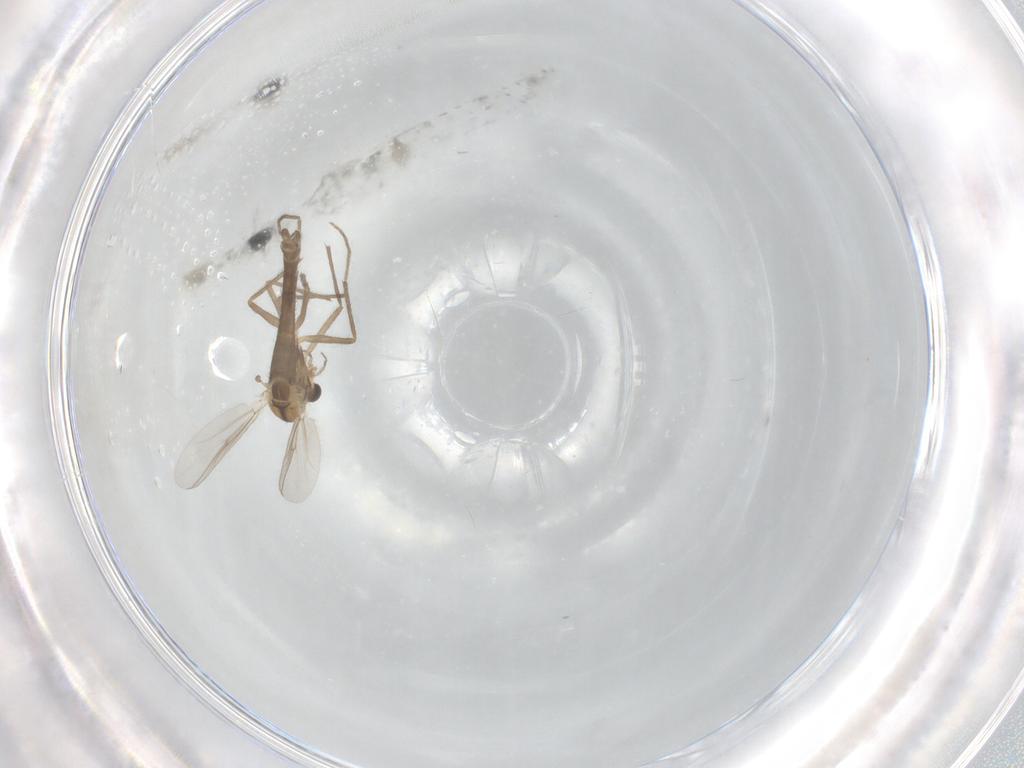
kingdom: Animalia
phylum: Arthropoda
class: Insecta
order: Diptera
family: Chironomidae
